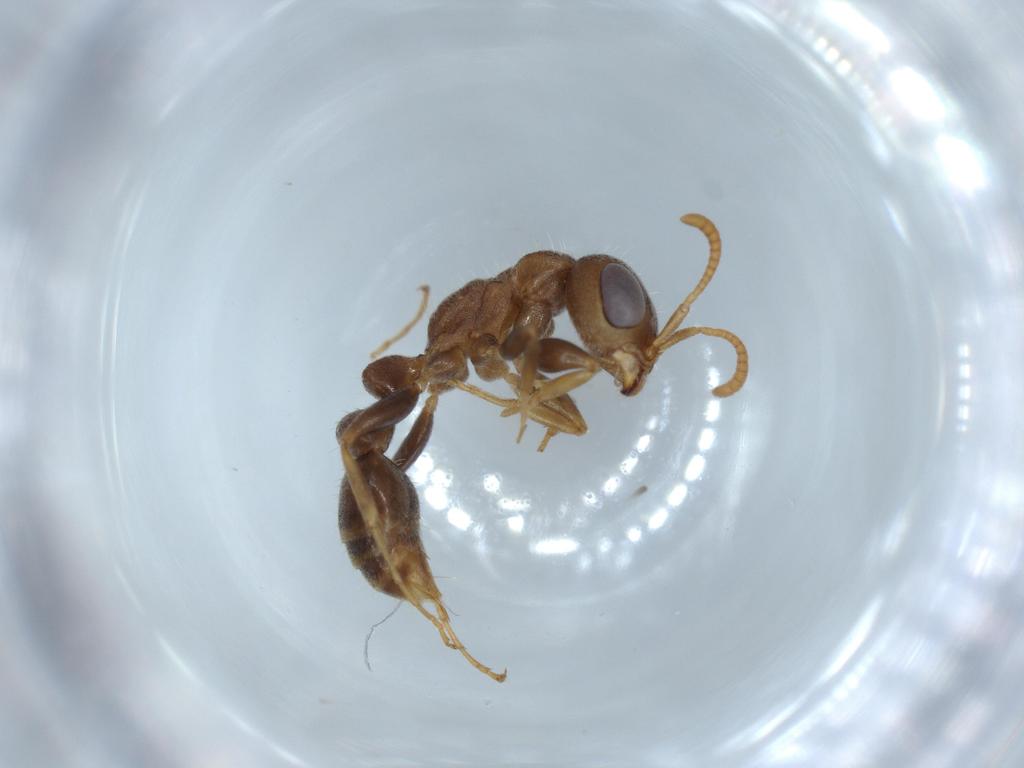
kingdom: Animalia
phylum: Arthropoda
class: Insecta
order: Hymenoptera
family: Formicidae
